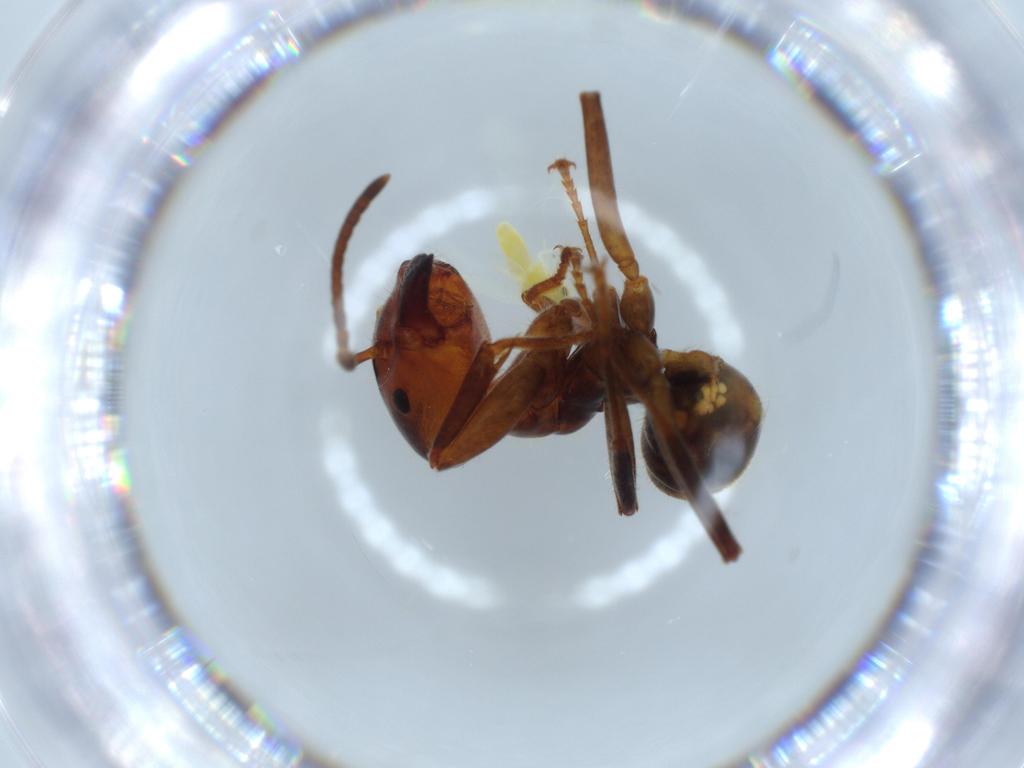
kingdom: Animalia
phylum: Arthropoda
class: Insecta
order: Hymenoptera
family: Formicidae
